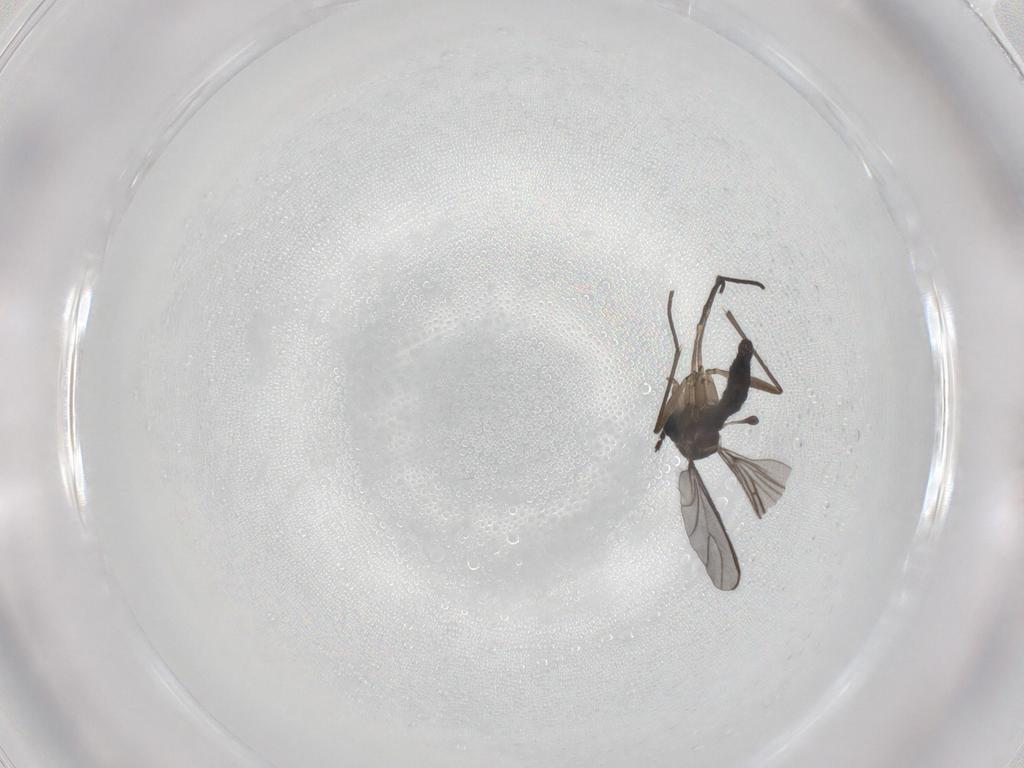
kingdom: Animalia
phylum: Arthropoda
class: Insecta
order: Diptera
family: Sciaridae
